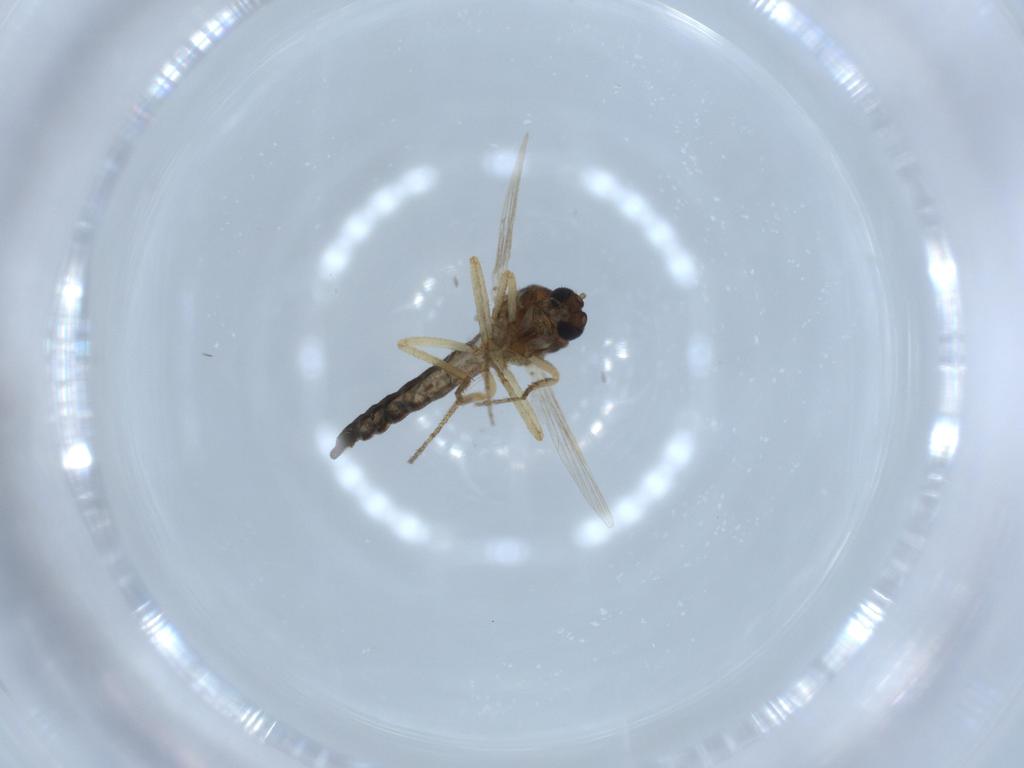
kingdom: Animalia
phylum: Arthropoda
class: Insecta
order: Diptera
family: Ceratopogonidae
